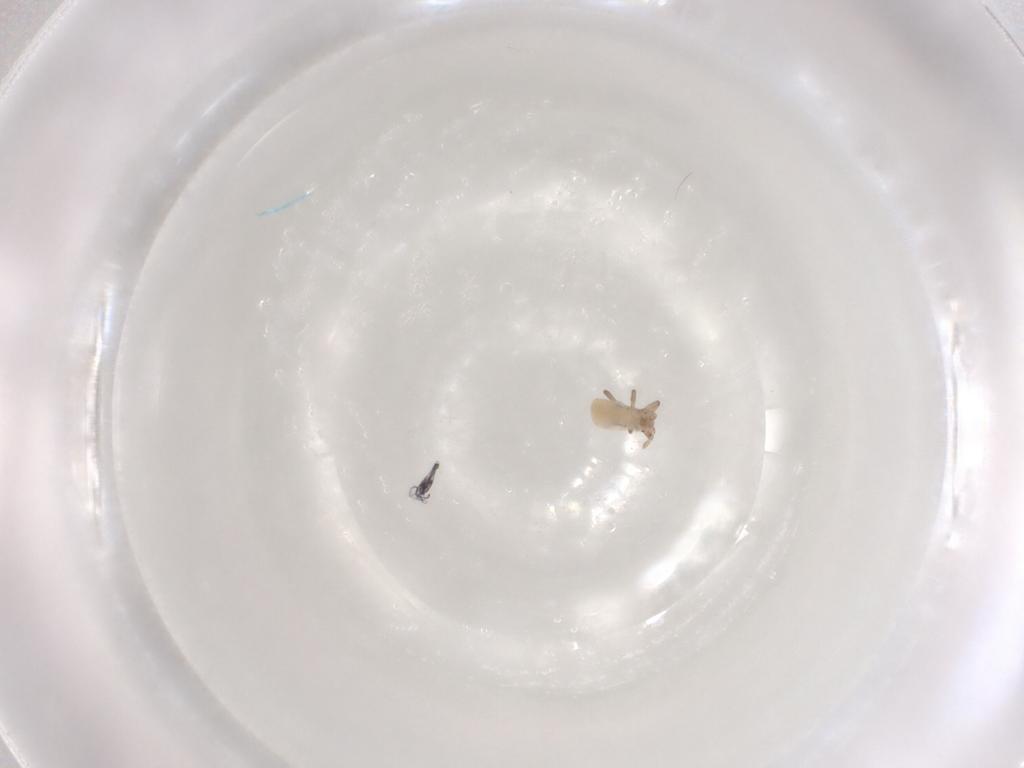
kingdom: Animalia
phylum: Arthropoda
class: Insecta
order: Hemiptera
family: Aphididae
